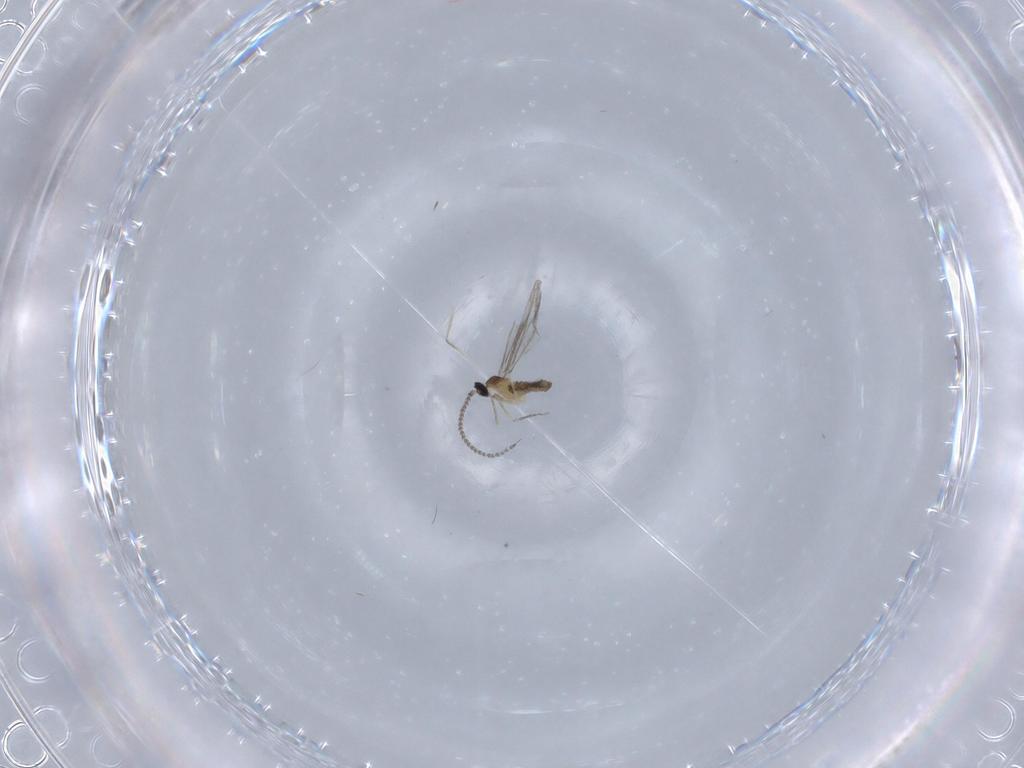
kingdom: Animalia
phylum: Arthropoda
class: Insecta
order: Diptera
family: Cecidomyiidae
